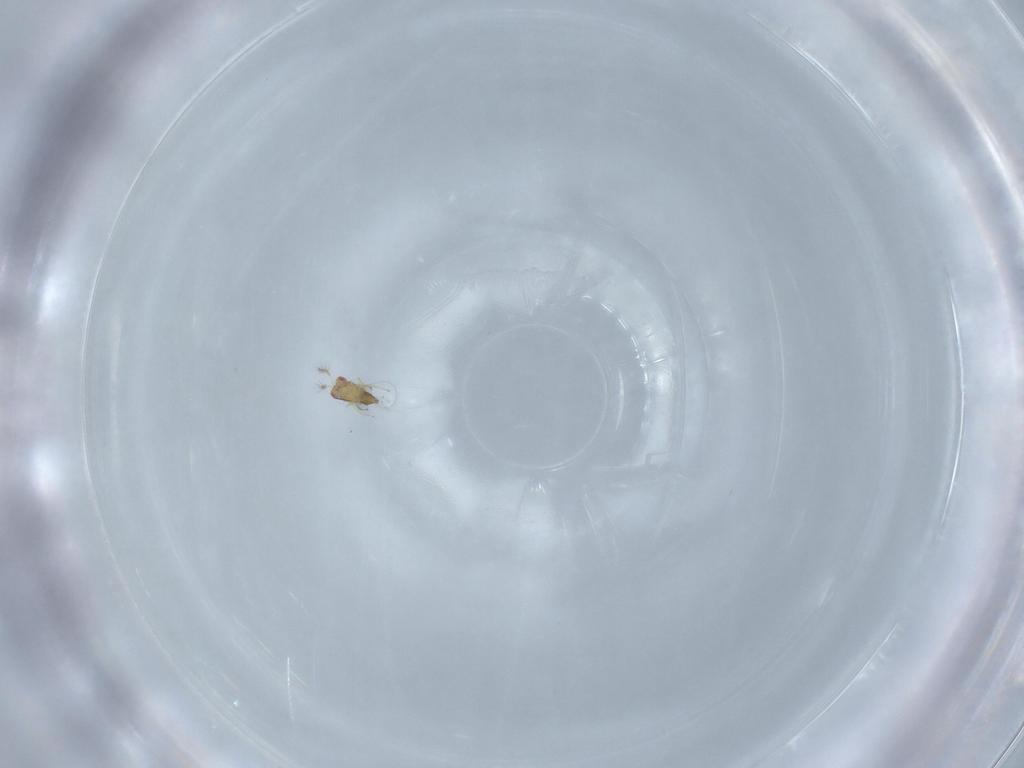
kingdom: Animalia
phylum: Arthropoda
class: Insecta
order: Hymenoptera
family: Trichogrammatidae
